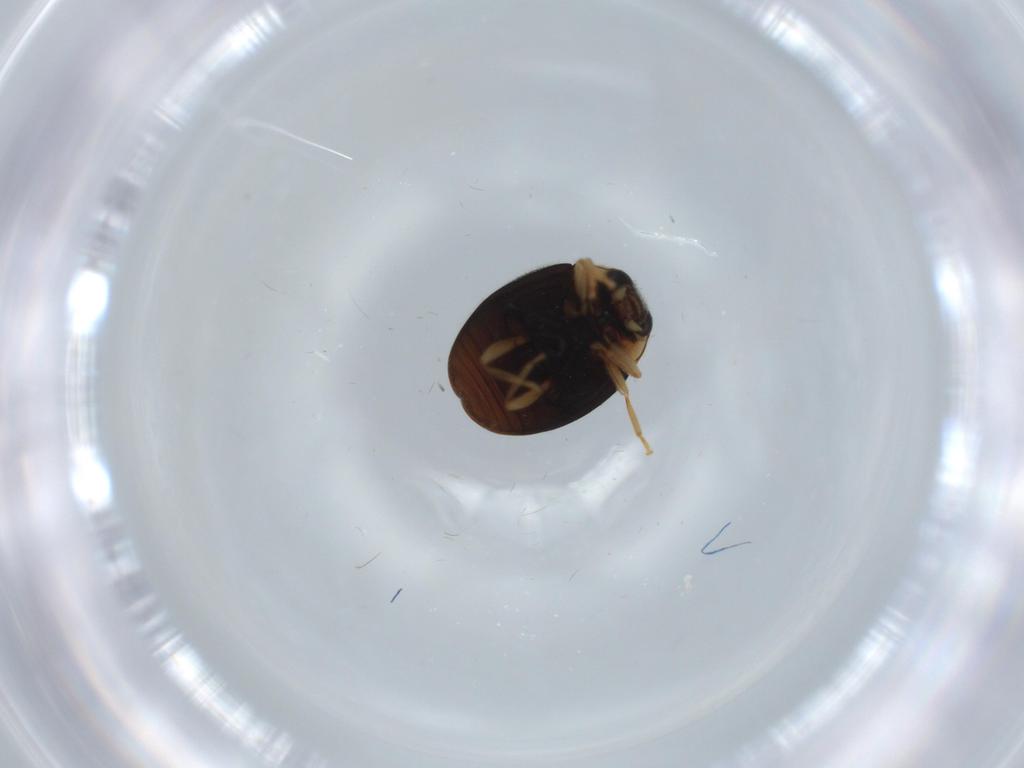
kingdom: Animalia
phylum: Arthropoda
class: Insecta
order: Coleoptera
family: Coccinellidae
